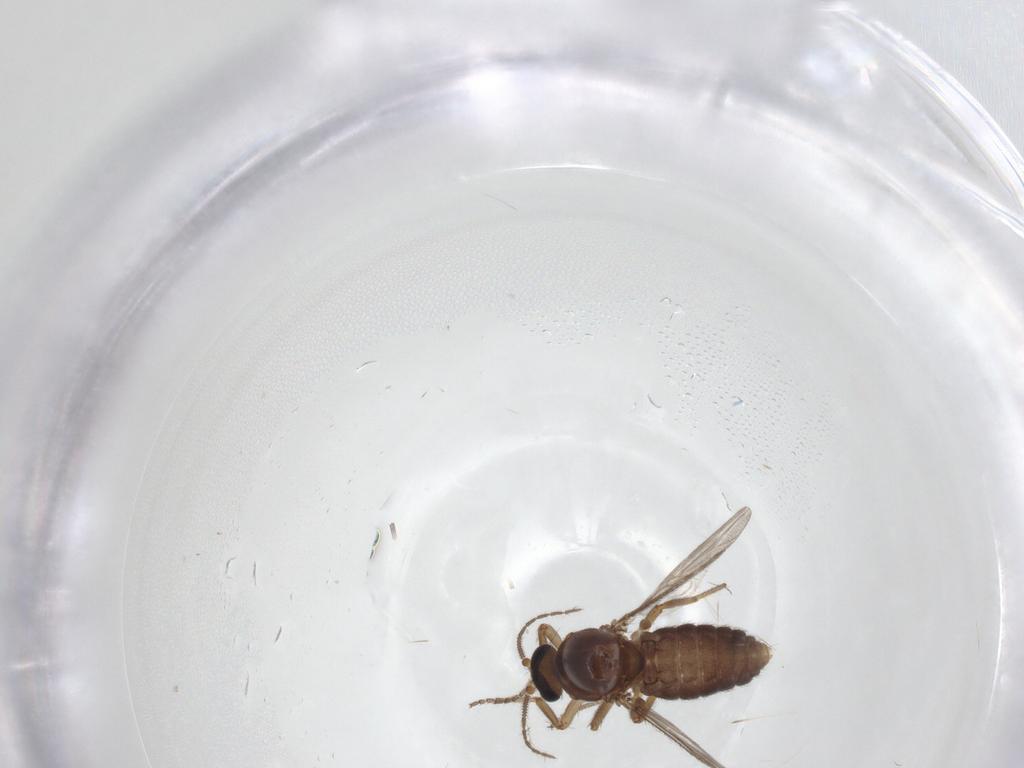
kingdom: Animalia
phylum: Arthropoda
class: Insecta
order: Diptera
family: Ceratopogonidae
